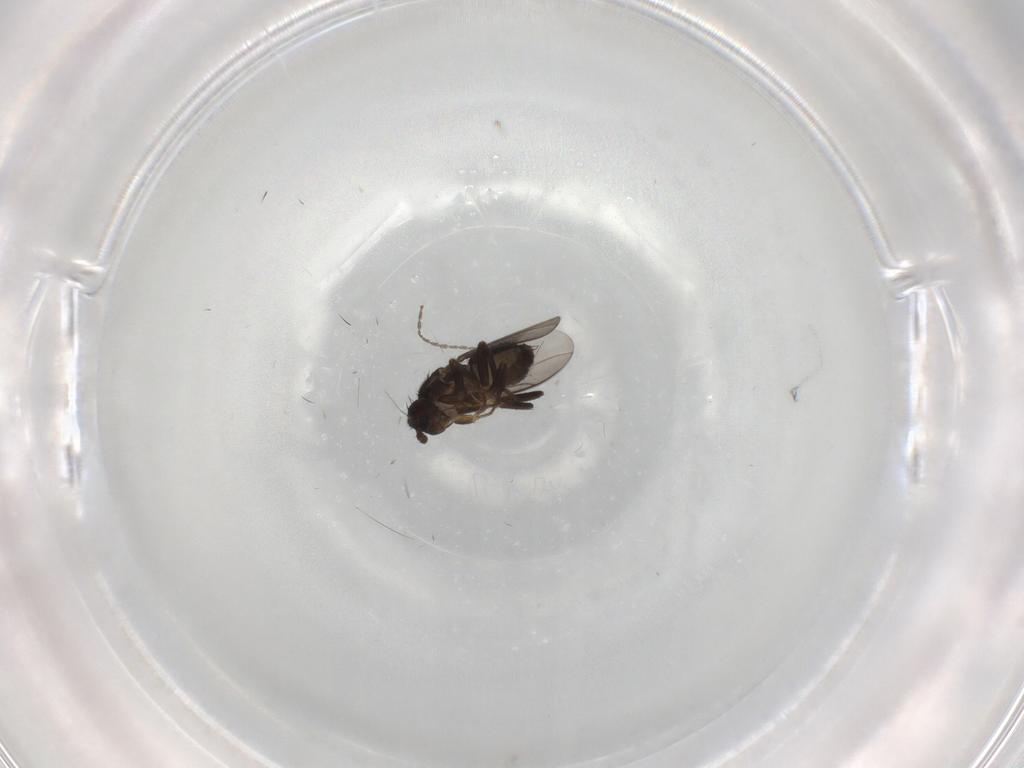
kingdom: Animalia
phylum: Arthropoda
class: Insecta
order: Diptera
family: Sphaeroceridae
